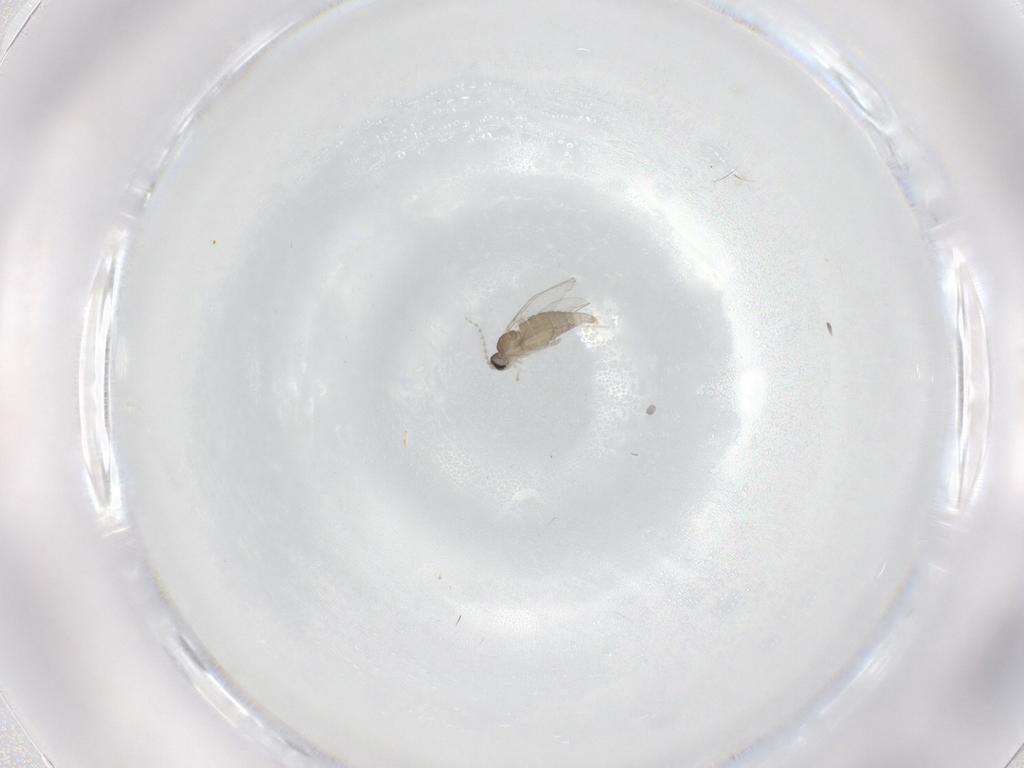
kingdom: Animalia
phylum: Arthropoda
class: Insecta
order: Diptera
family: Cecidomyiidae
